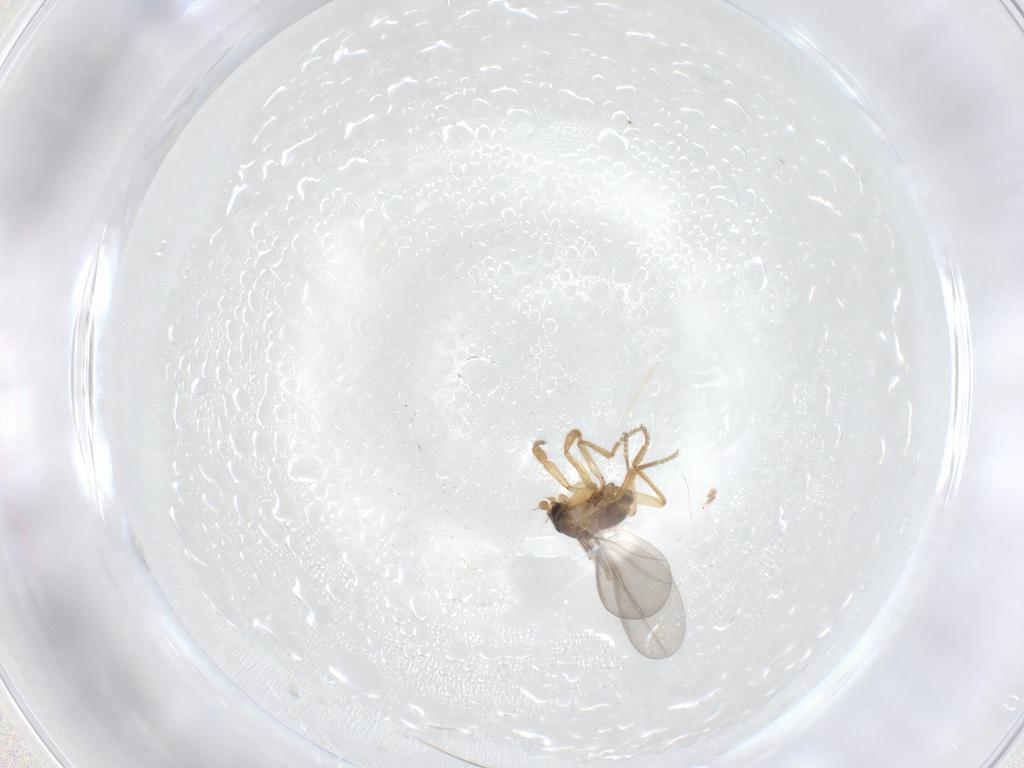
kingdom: Animalia
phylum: Arthropoda
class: Insecta
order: Diptera
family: Phoridae
